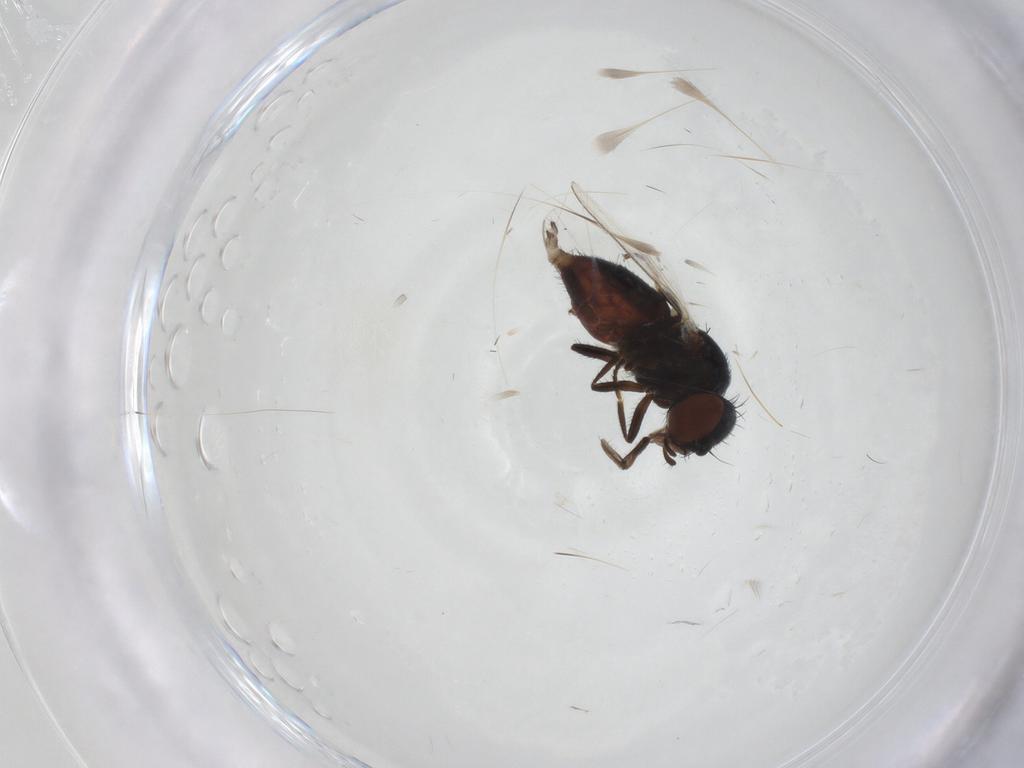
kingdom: Animalia
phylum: Arthropoda
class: Insecta
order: Diptera
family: Milichiidae
